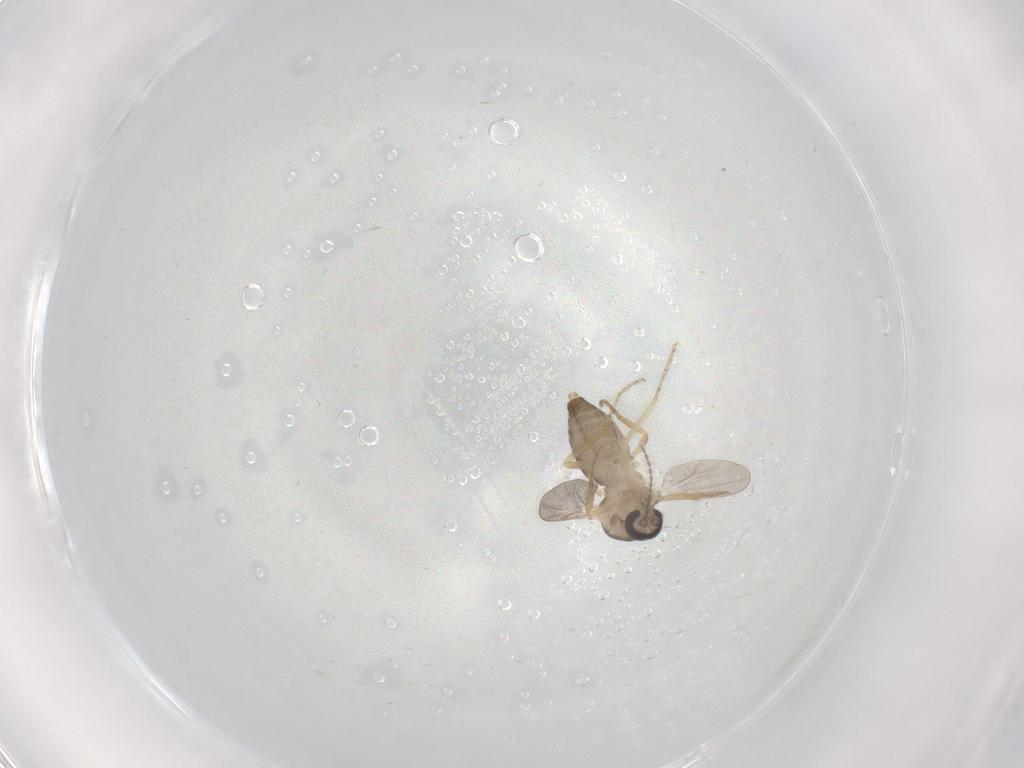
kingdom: Animalia
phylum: Arthropoda
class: Insecta
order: Diptera
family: Ceratopogonidae
